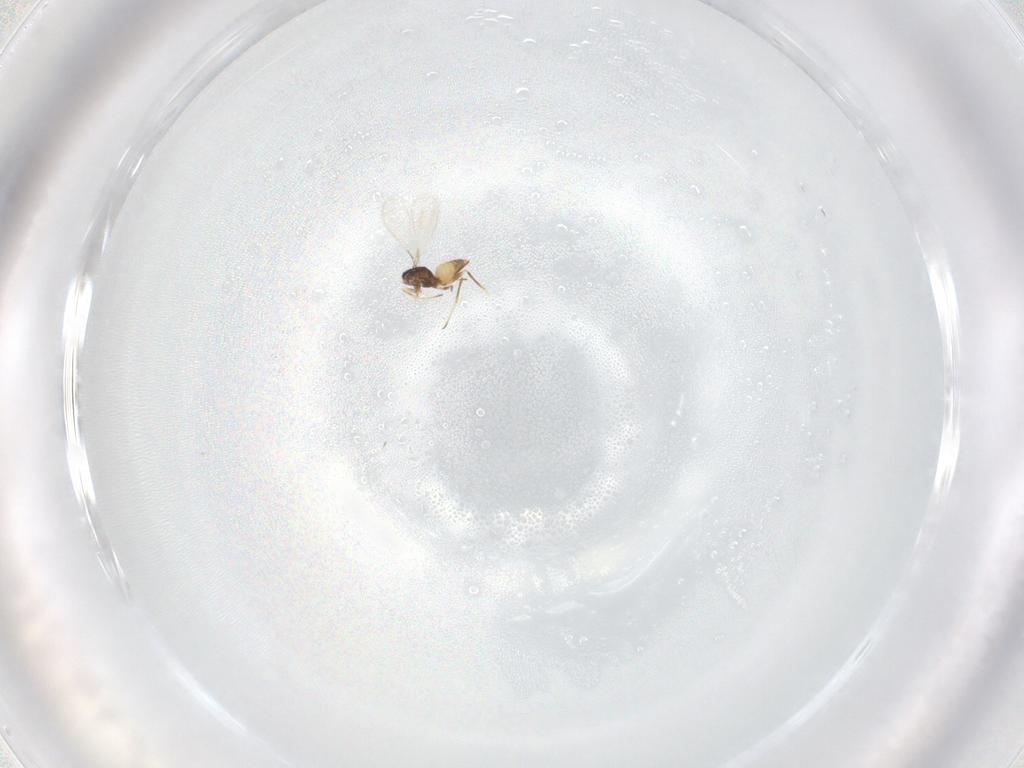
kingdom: Animalia
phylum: Arthropoda
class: Insecta
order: Hymenoptera
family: Mymaridae
